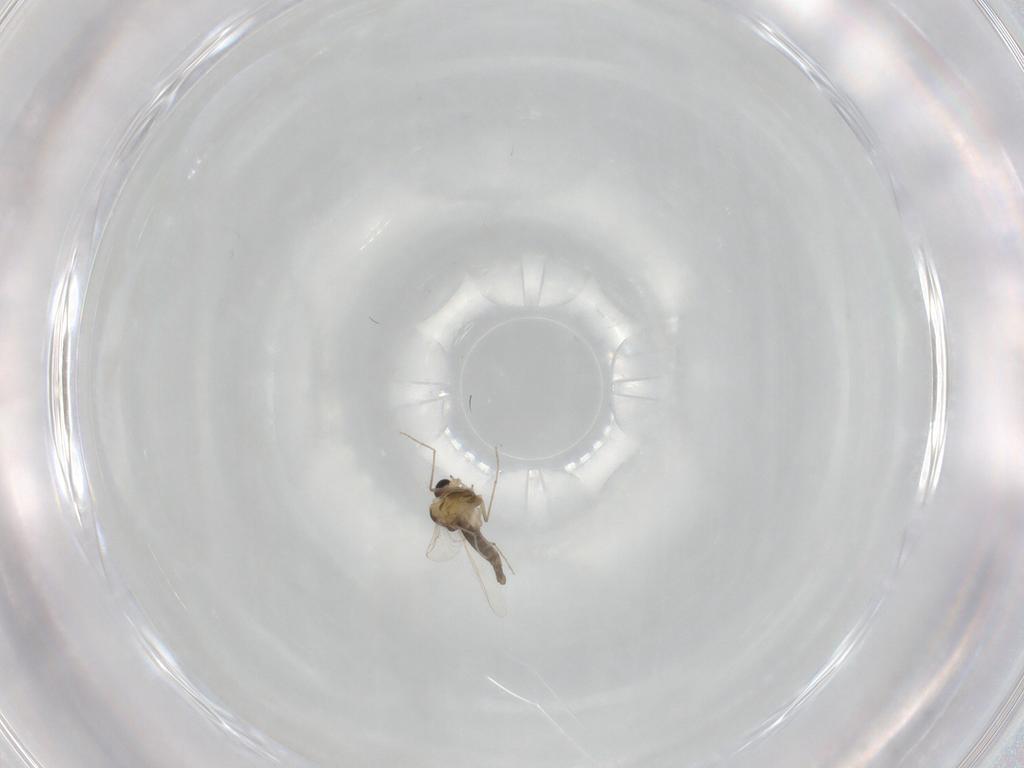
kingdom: Animalia
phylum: Arthropoda
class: Insecta
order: Diptera
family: Chironomidae
